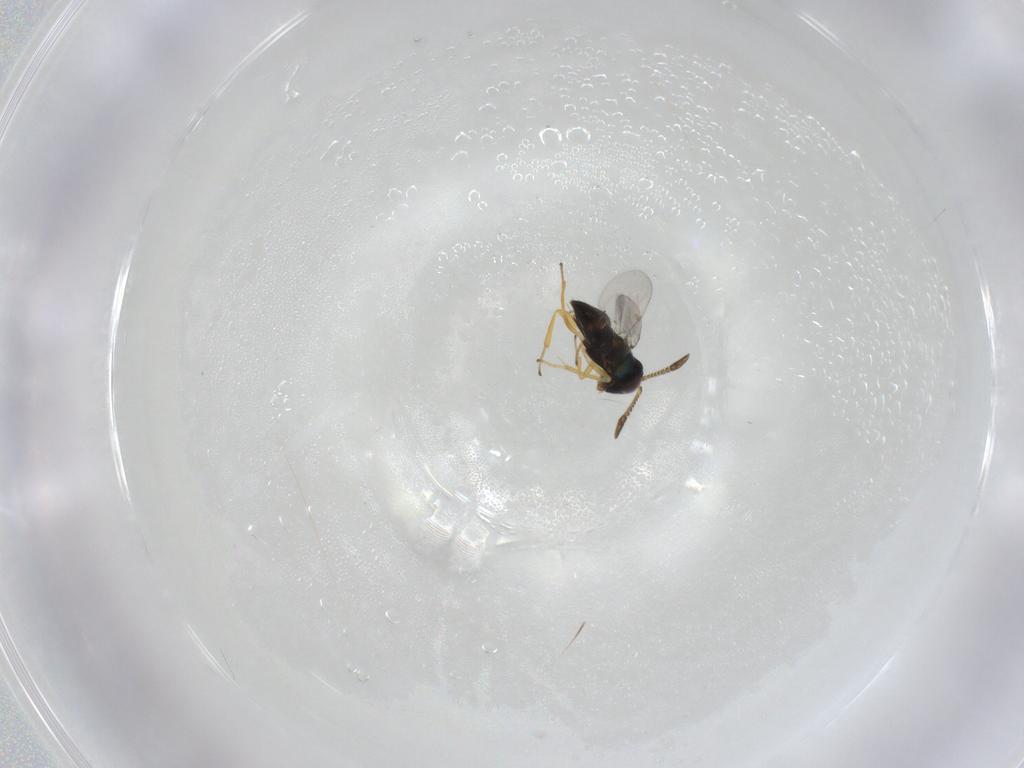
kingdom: Animalia
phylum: Arthropoda
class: Insecta
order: Hymenoptera
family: Encyrtidae
